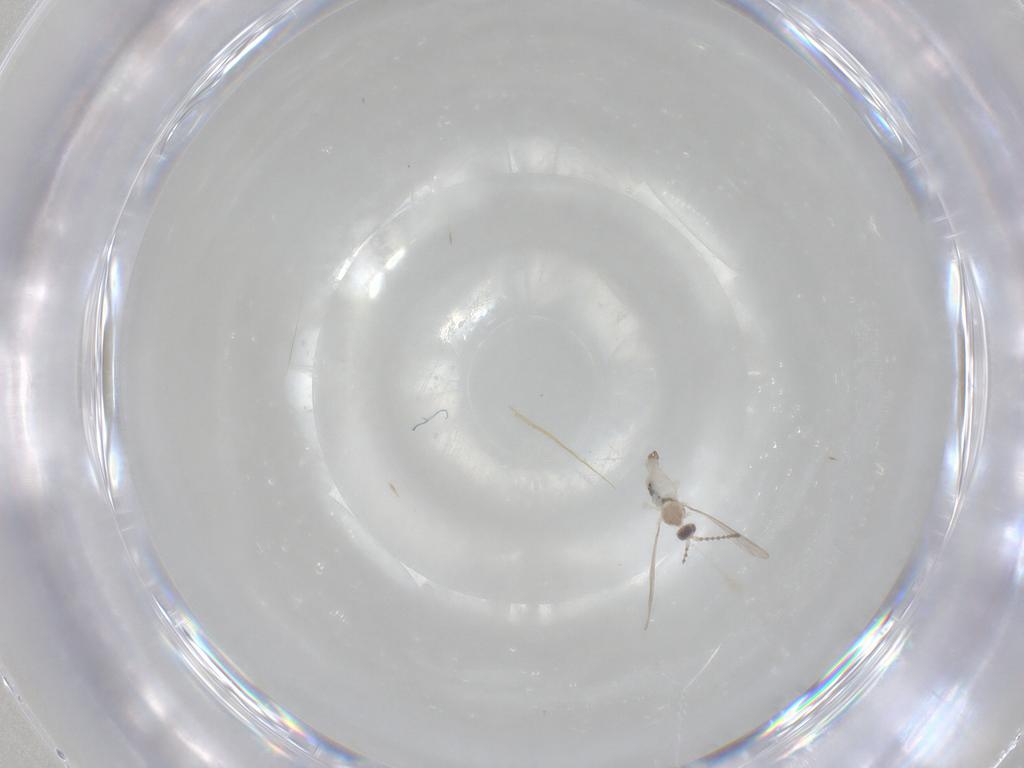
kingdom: Animalia
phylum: Arthropoda
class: Insecta
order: Diptera
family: Cecidomyiidae
